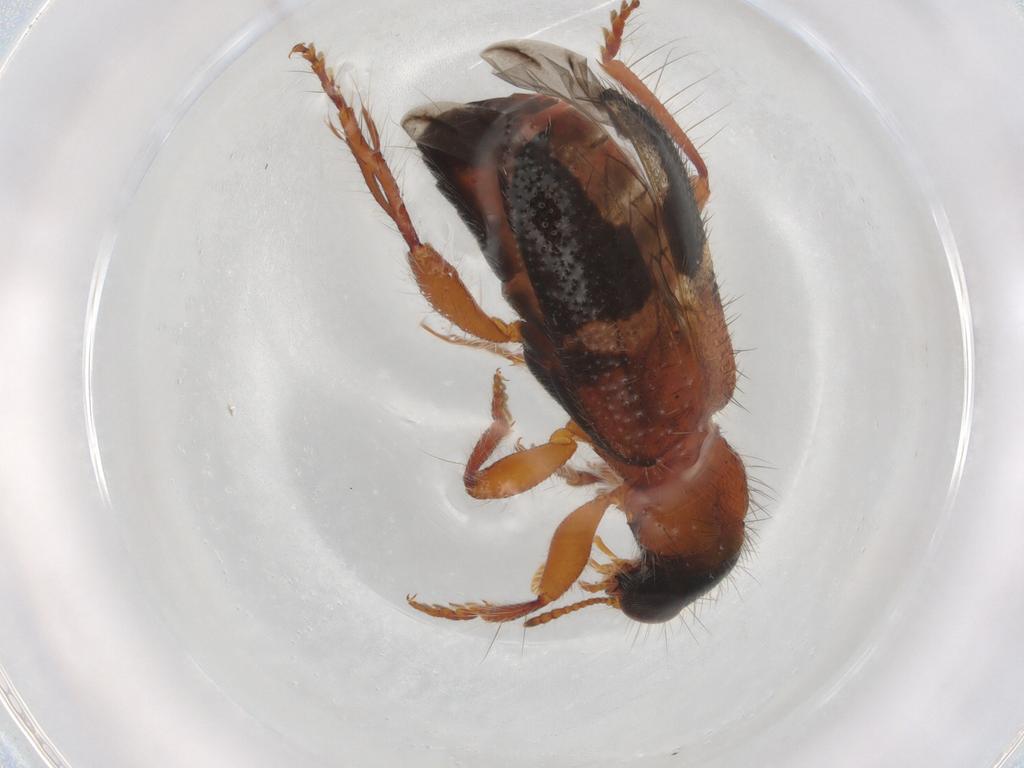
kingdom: Animalia
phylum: Arthropoda
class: Insecta
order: Coleoptera
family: Cantharidae
